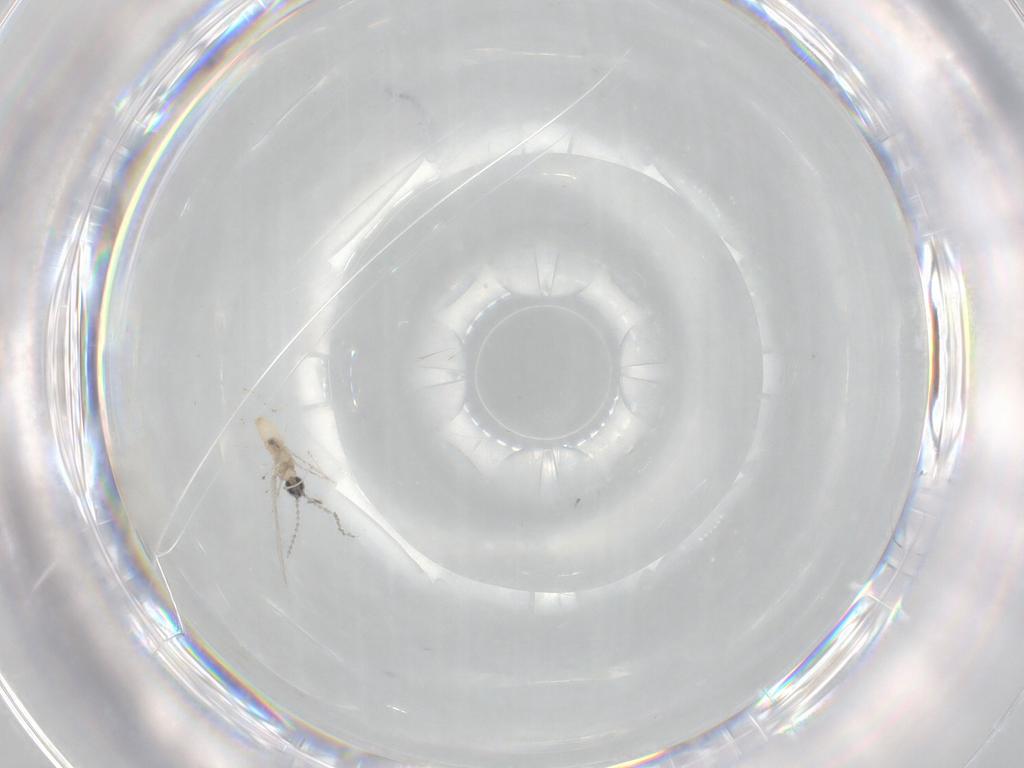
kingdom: Animalia
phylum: Arthropoda
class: Insecta
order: Diptera
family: Cecidomyiidae
